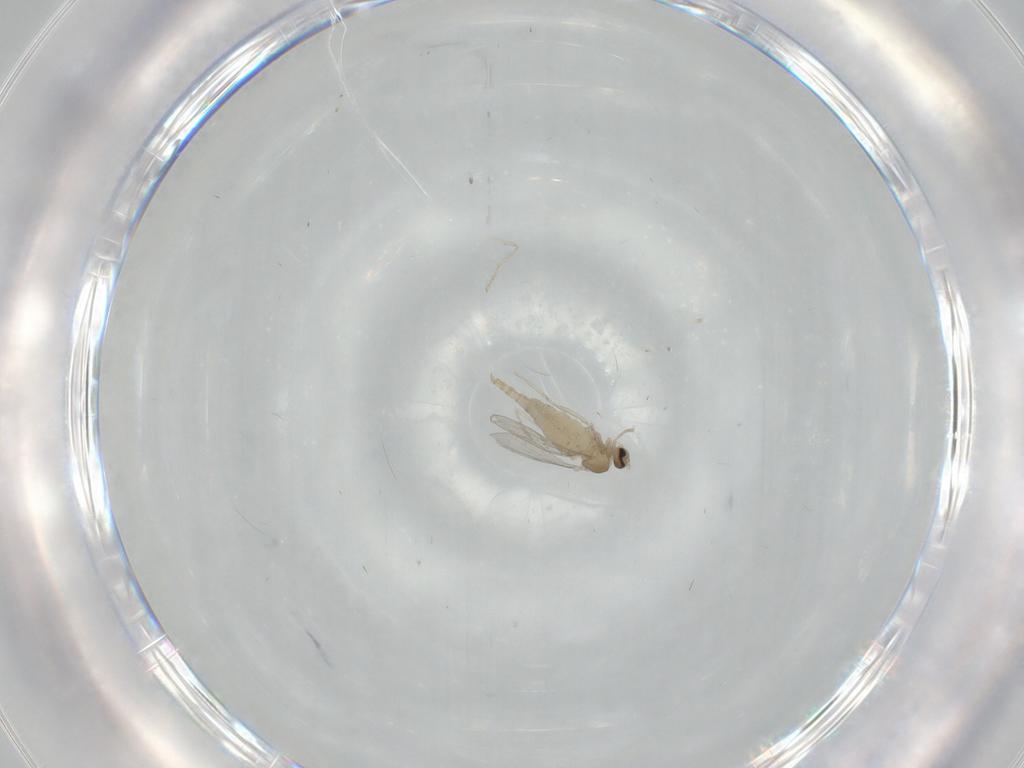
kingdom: Animalia
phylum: Arthropoda
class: Insecta
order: Diptera
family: Cecidomyiidae
